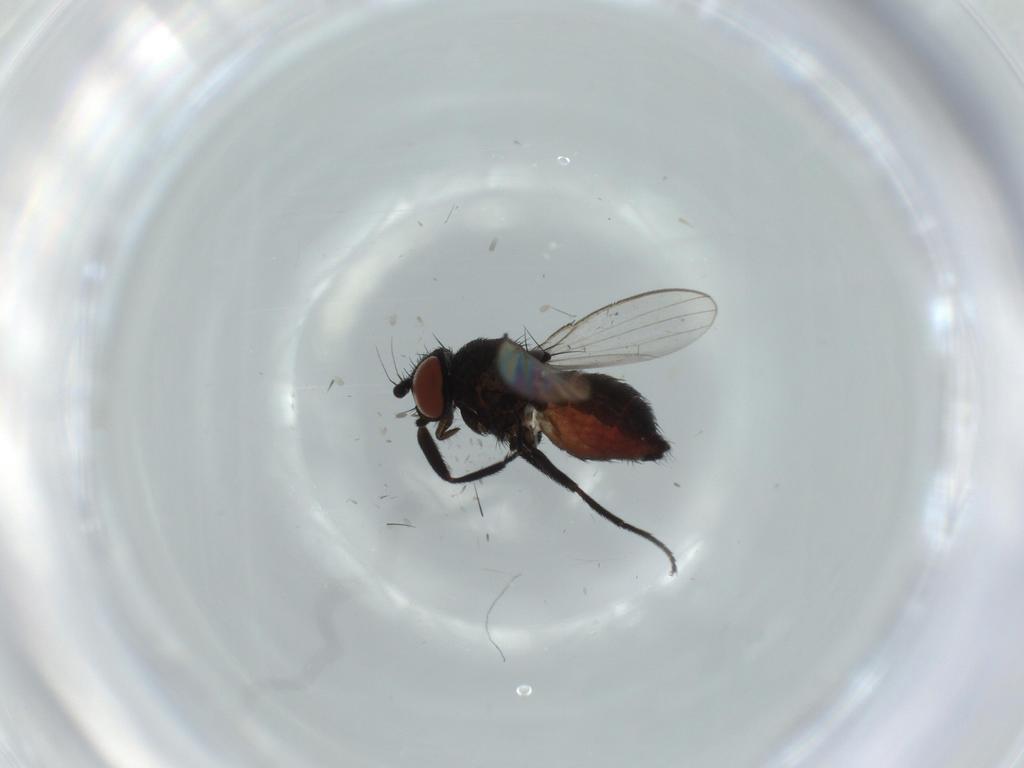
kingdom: Animalia
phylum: Arthropoda
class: Insecta
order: Diptera
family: Milichiidae
